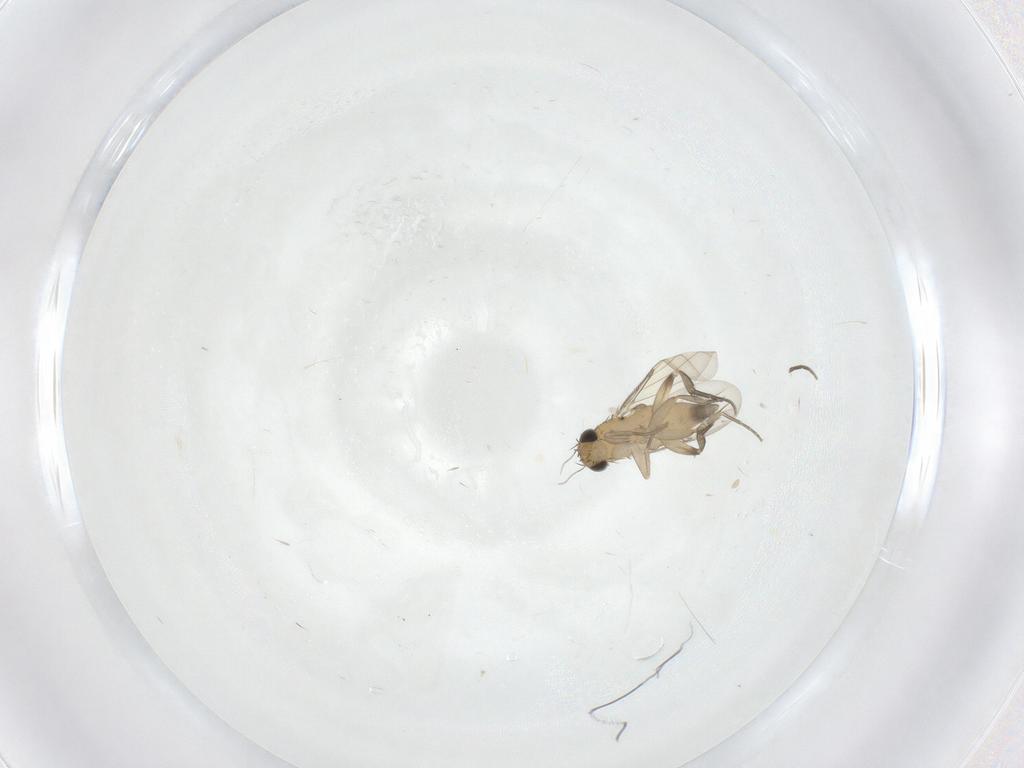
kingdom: Animalia
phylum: Arthropoda
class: Insecta
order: Diptera
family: Phoridae
